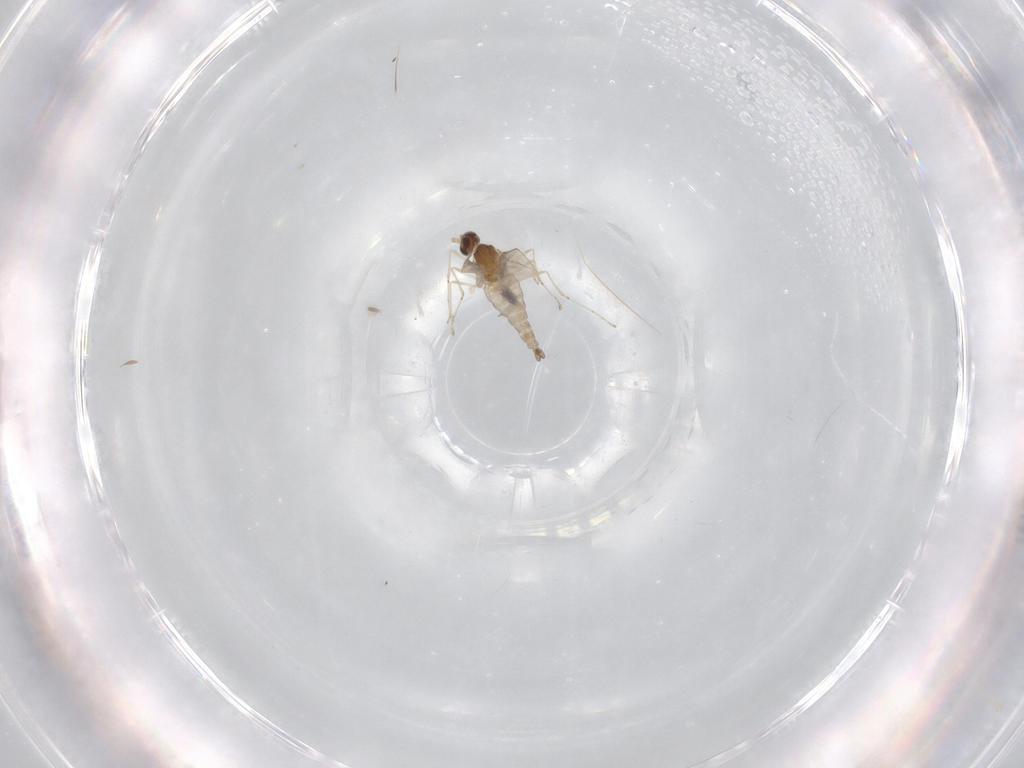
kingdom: Animalia
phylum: Arthropoda
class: Insecta
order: Diptera
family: Cecidomyiidae
